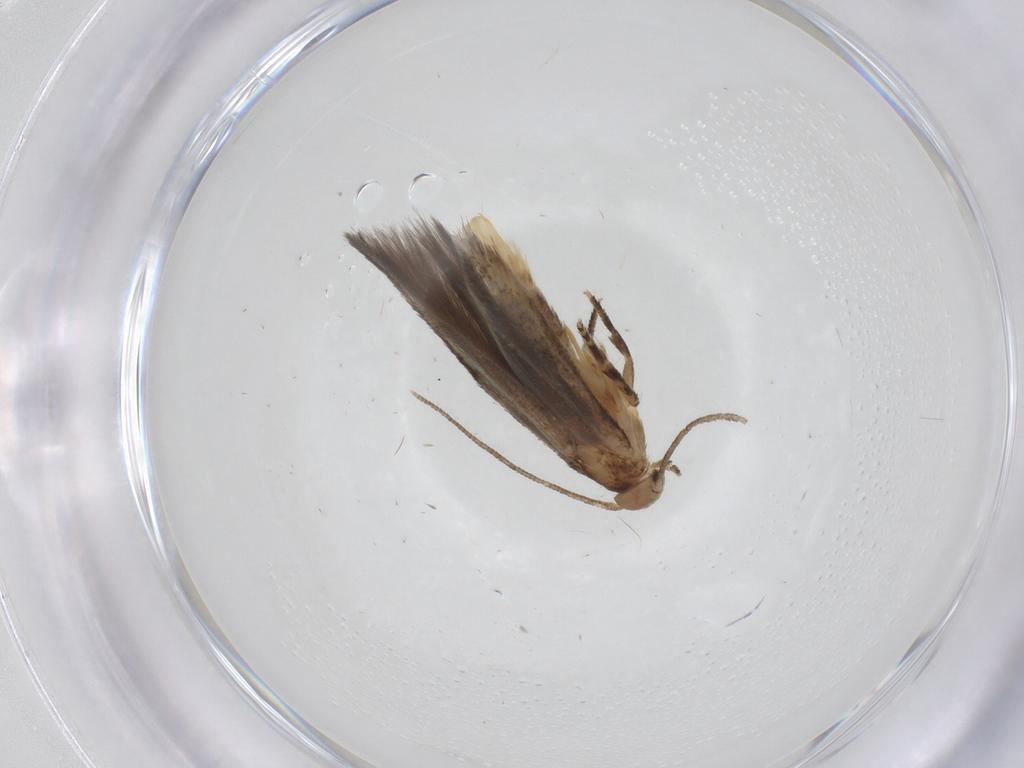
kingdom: Animalia
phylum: Arthropoda
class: Insecta
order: Lepidoptera
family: Elachistidae
